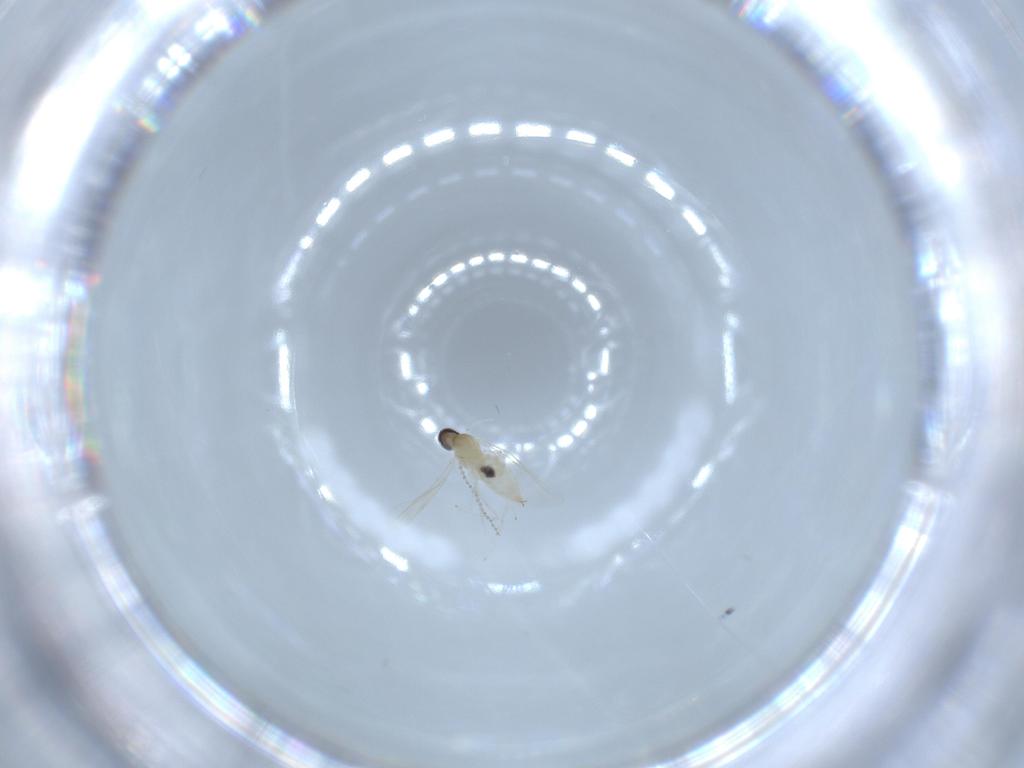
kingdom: Animalia
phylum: Arthropoda
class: Insecta
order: Diptera
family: Cecidomyiidae
